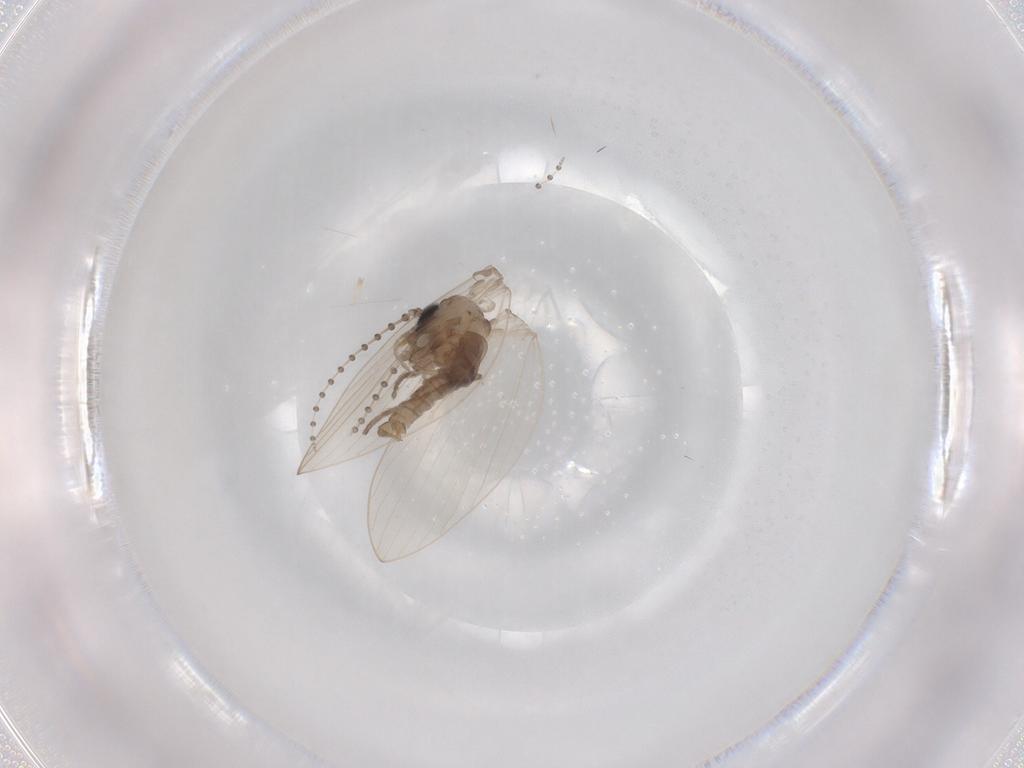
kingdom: Animalia
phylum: Arthropoda
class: Insecta
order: Diptera
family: Psychodidae
